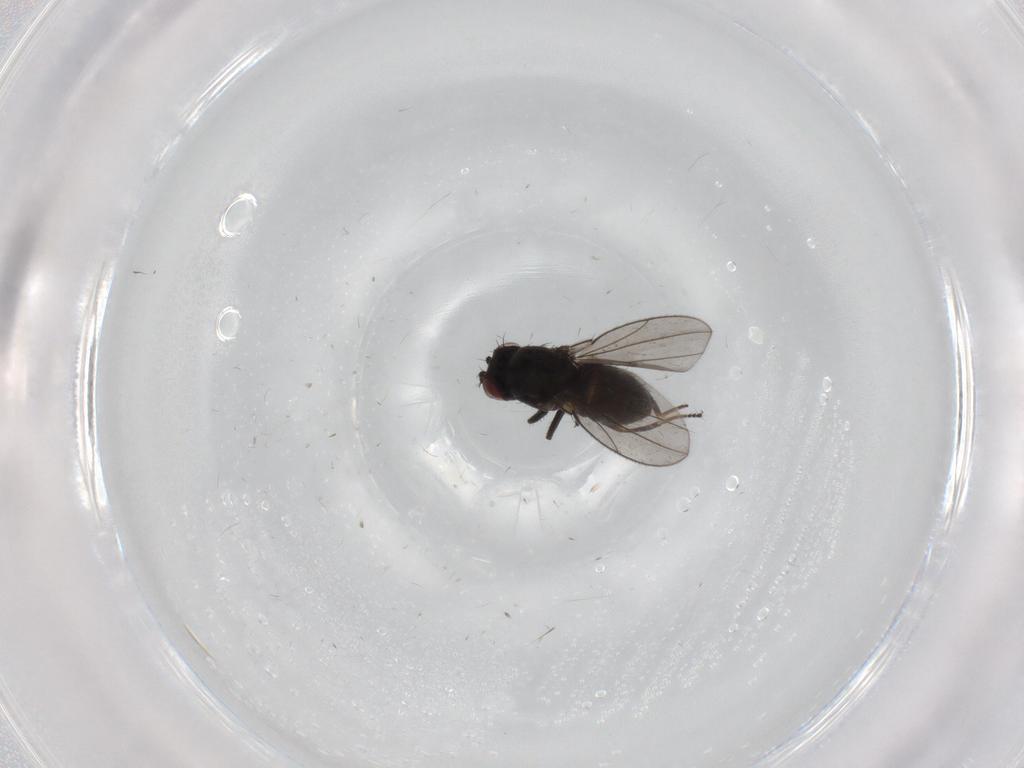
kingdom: Animalia
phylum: Arthropoda
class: Insecta
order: Diptera
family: Ephydridae
